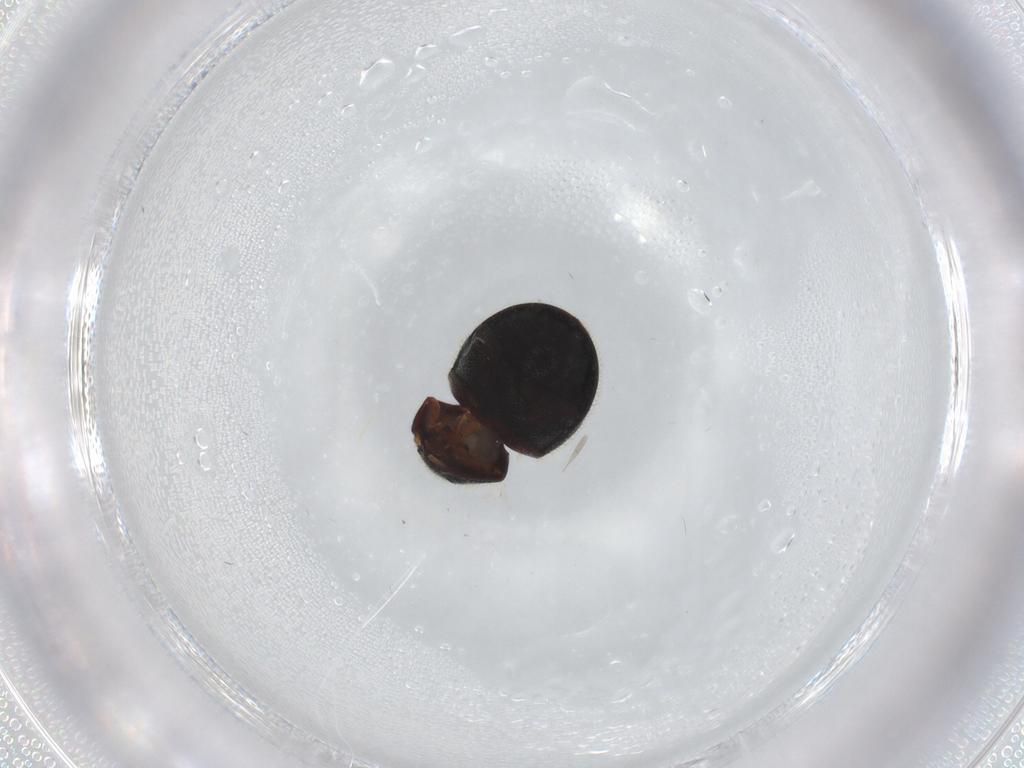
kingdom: Animalia
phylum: Arthropoda
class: Insecta
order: Coleoptera
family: Ptinidae
